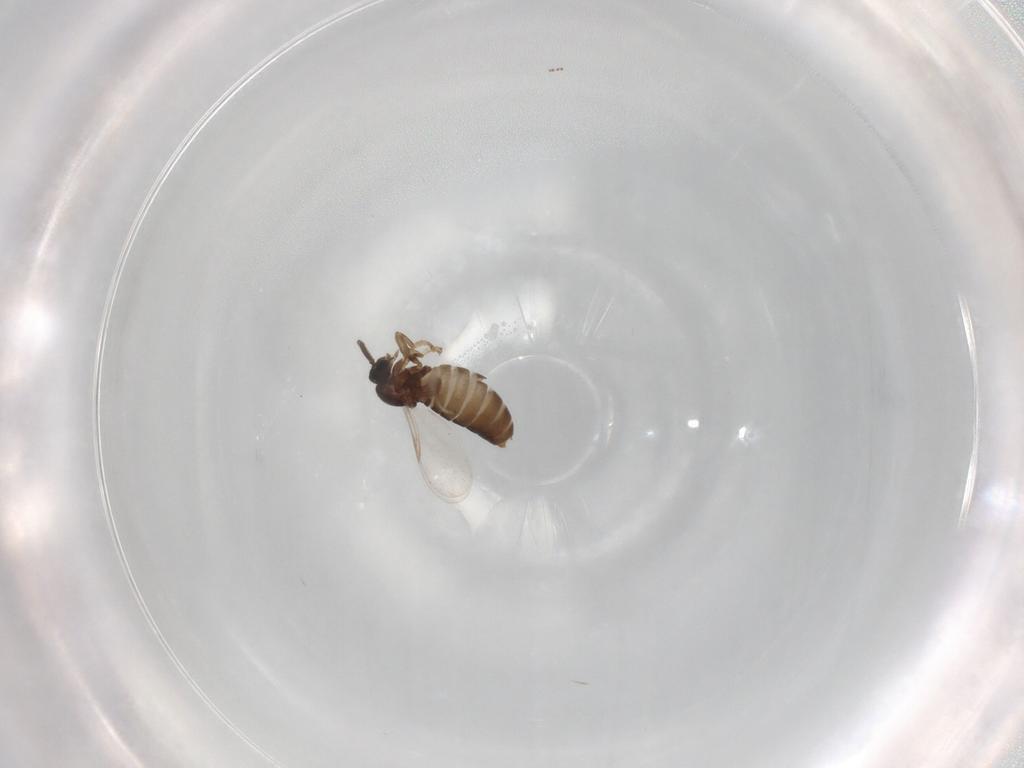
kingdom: Animalia
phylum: Arthropoda
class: Insecta
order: Diptera
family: Scatopsidae
